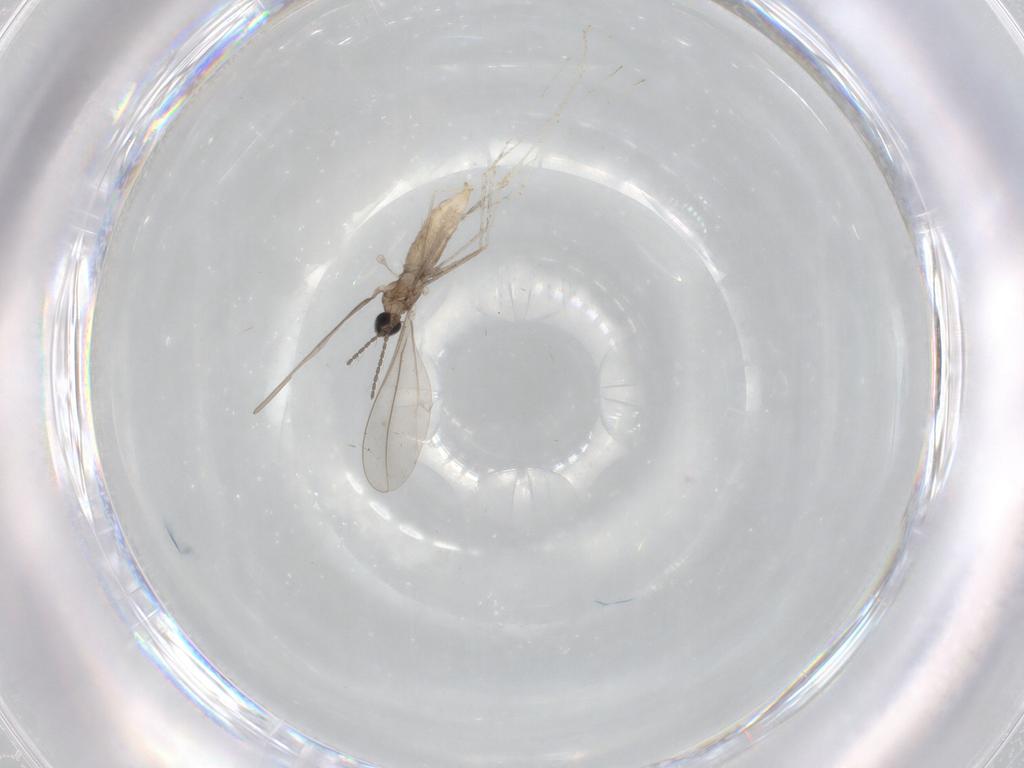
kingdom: Animalia
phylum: Arthropoda
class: Insecta
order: Diptera
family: Cecidomyiidae
